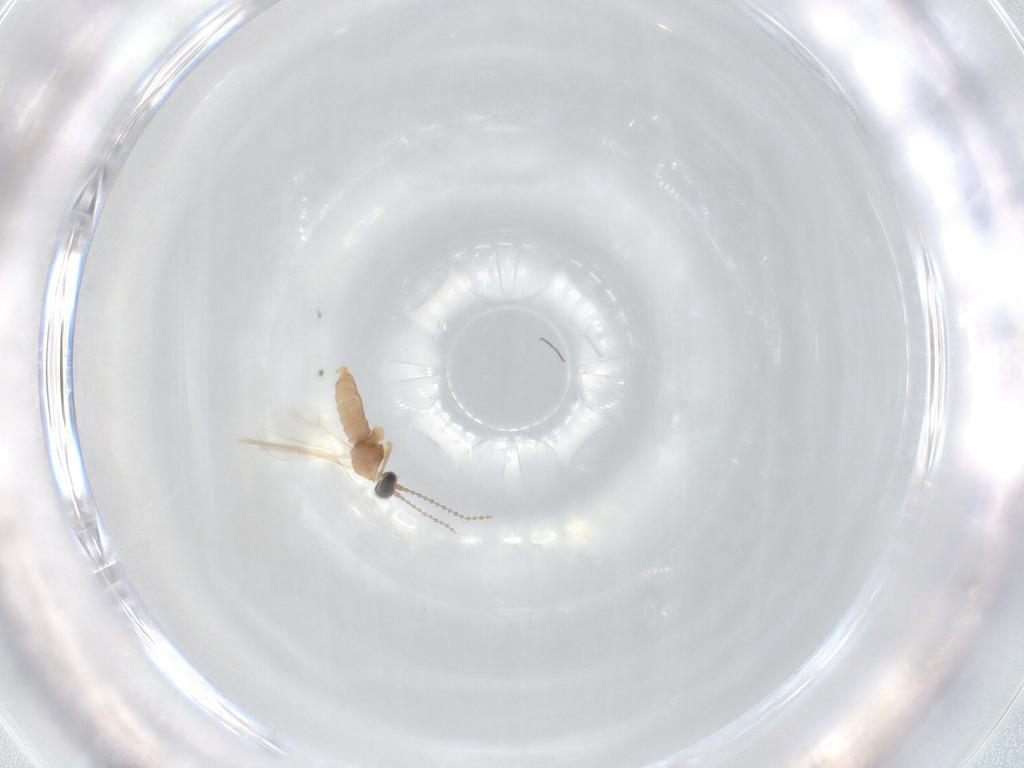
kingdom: Animalia
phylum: Arthropoda
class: Insecta
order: Diptera
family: Cecidomyiidae
